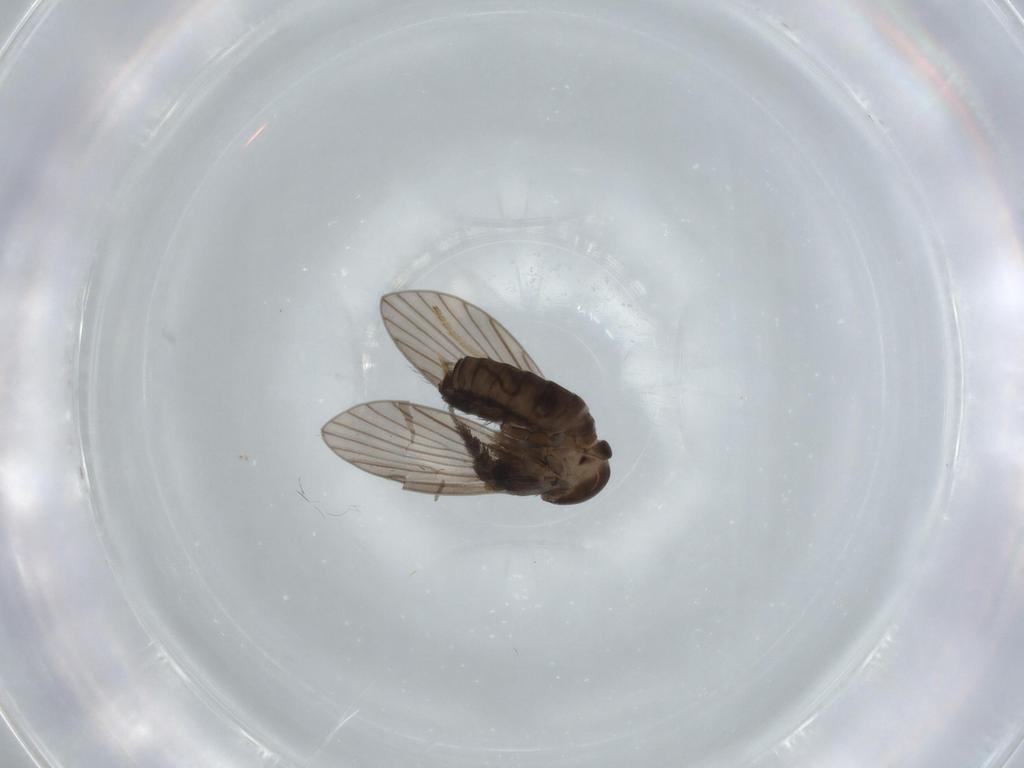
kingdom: Animalia
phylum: Arthropoda
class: Insecta
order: Diptera
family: Psychodidae
